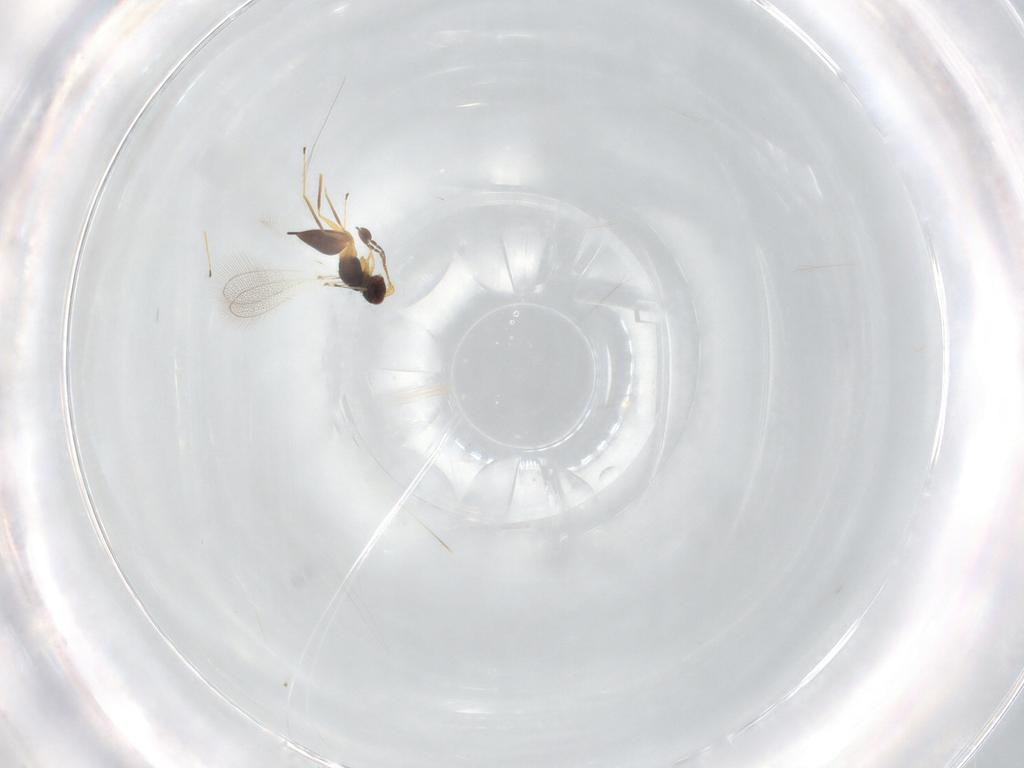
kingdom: Animalia
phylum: Arthropoda
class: Insecta
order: Hymenoptera
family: Mymaridae
